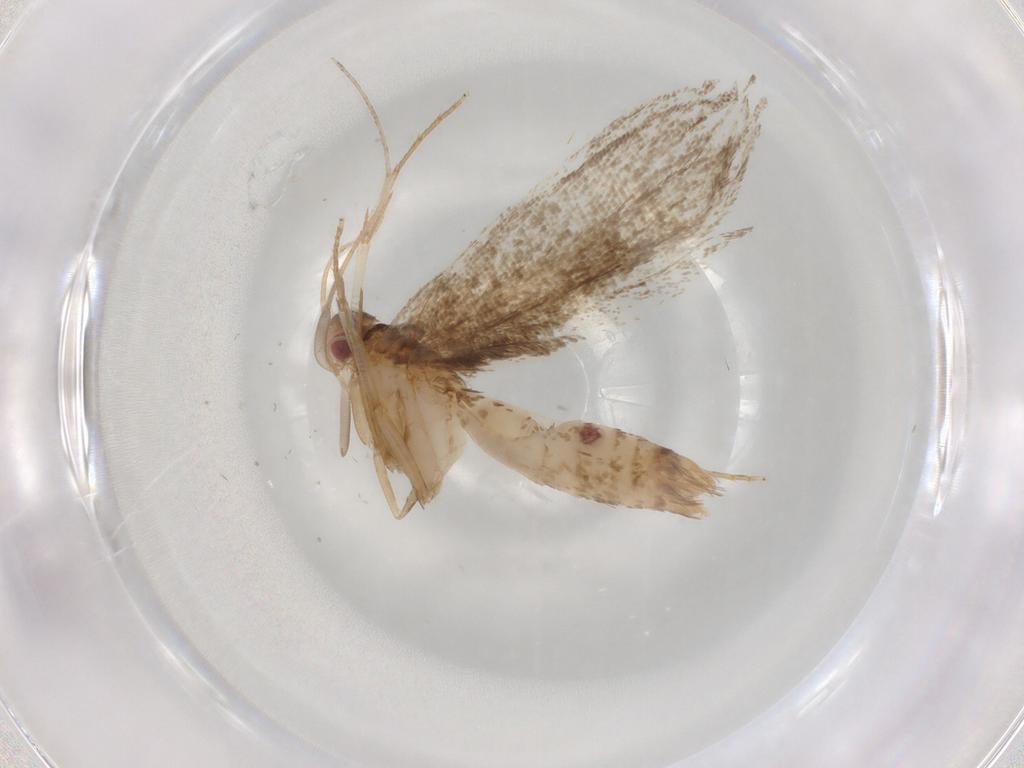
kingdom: Animalia
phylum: Arthropoda
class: Insecta
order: Lepidoptera
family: Gelechiidae
